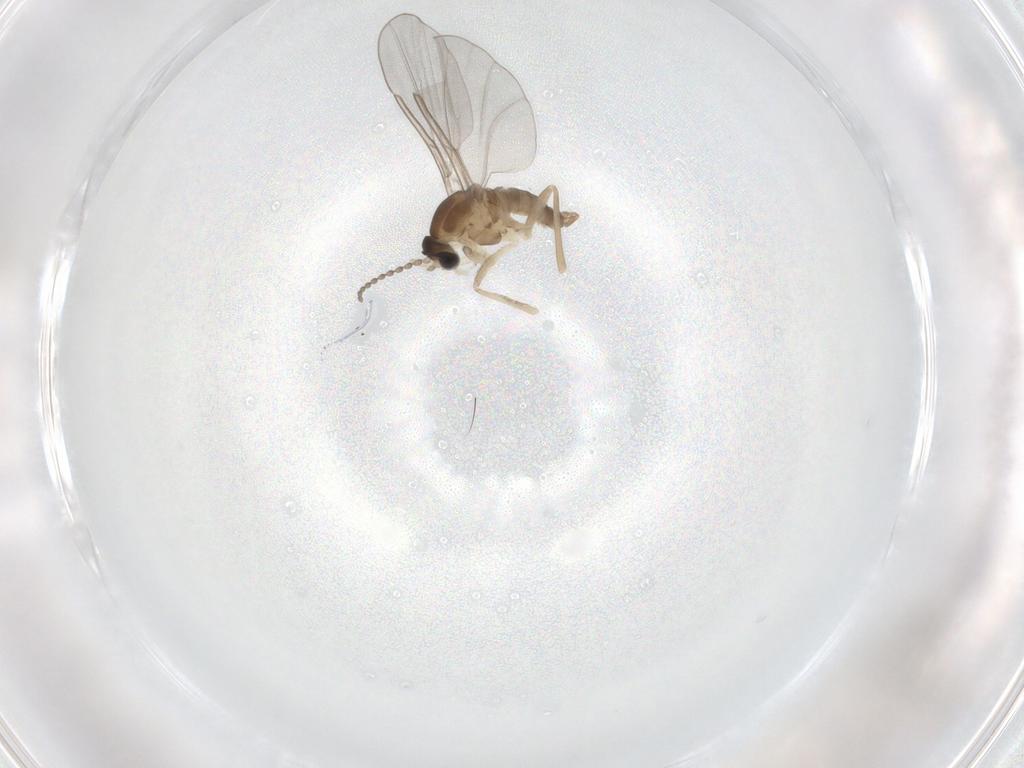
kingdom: Animalia
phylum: Arthropoda
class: Insecta
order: Diptera
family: Cecidomyiidae
